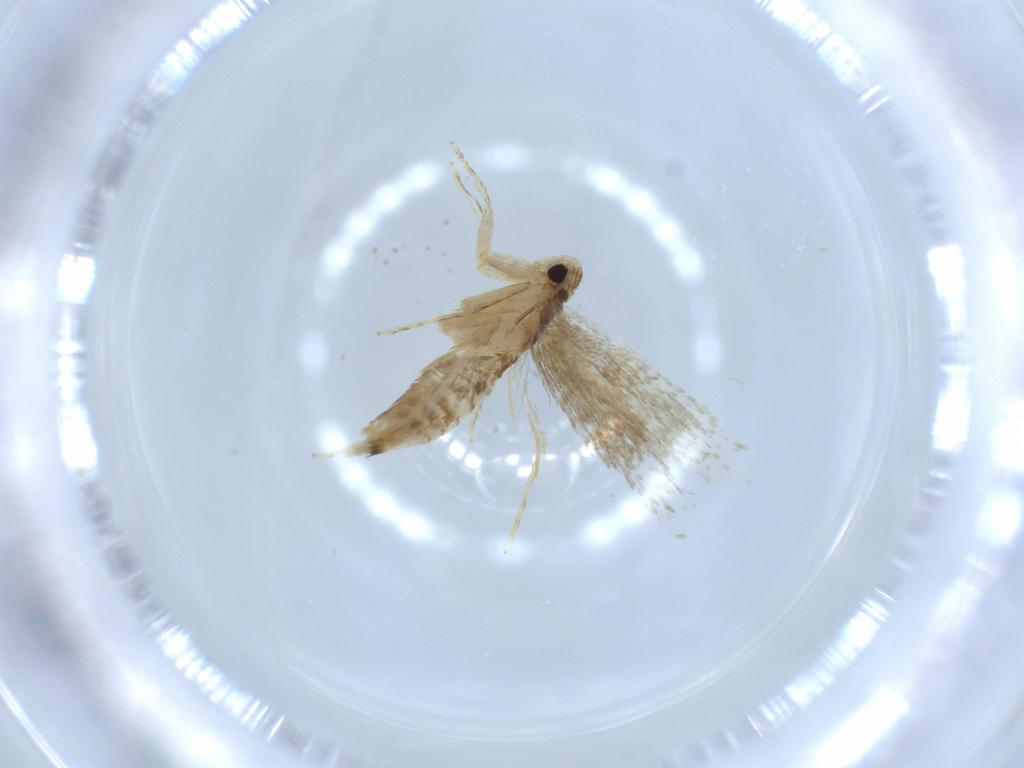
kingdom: Animalia
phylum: Arthropoda
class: Insecta
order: Lepidoptera
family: Tineidae
